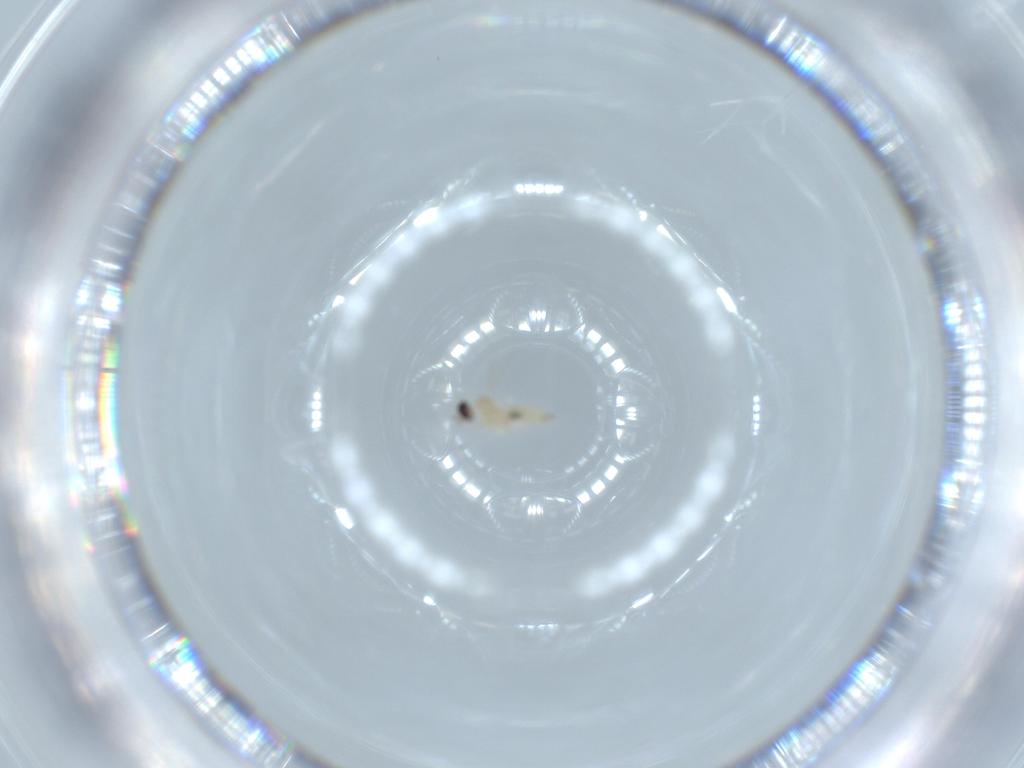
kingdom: Animalia
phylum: Arthropoda
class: Insecta
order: Diptera
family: Cecidomyiidae
